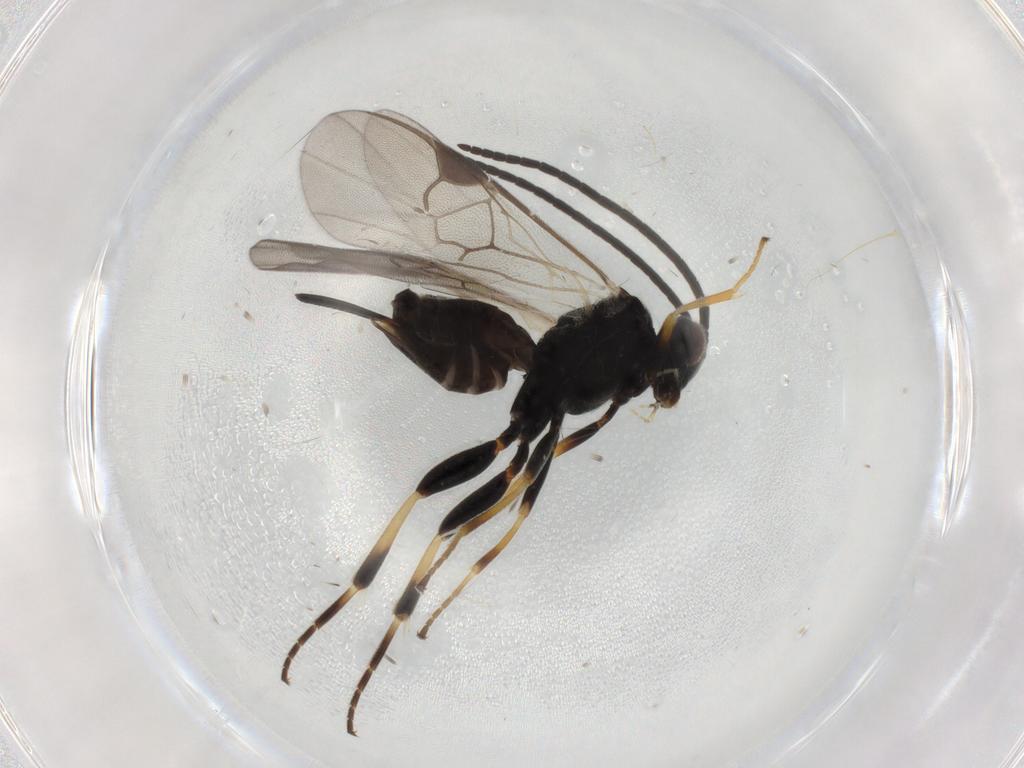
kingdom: Animalia
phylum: Arthropoda
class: Insecta
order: Hymenoptera
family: Braconidae
